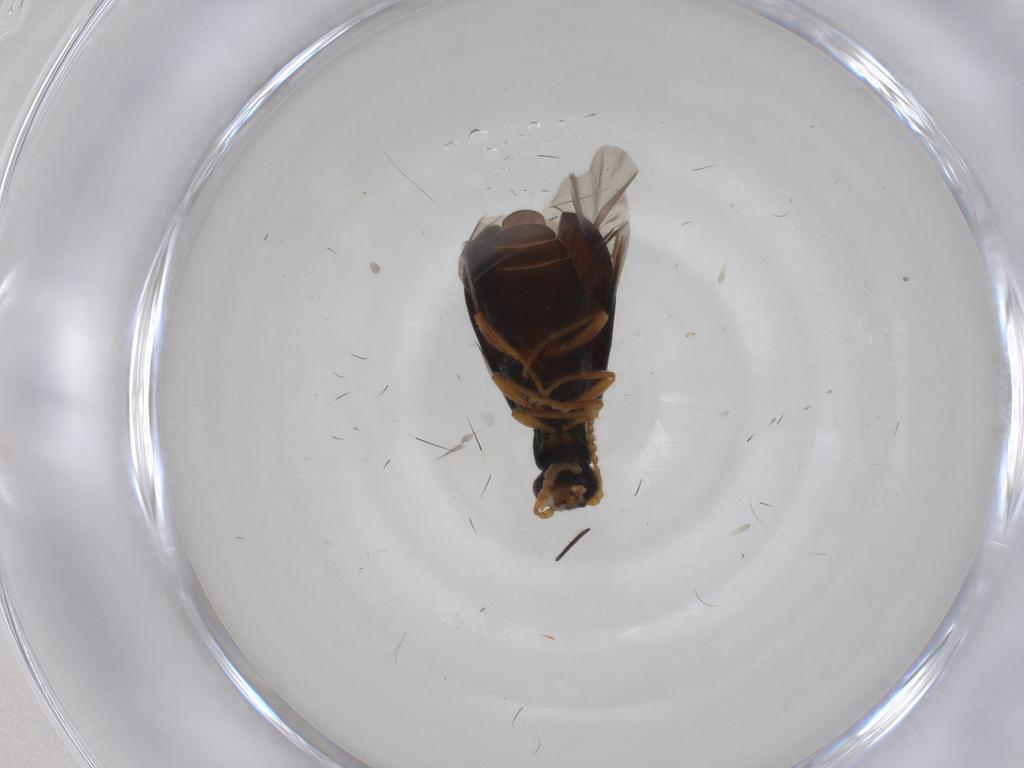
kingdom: Animalia
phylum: Arthropoda
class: Insecta
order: Coleoptera
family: Mycteridae
